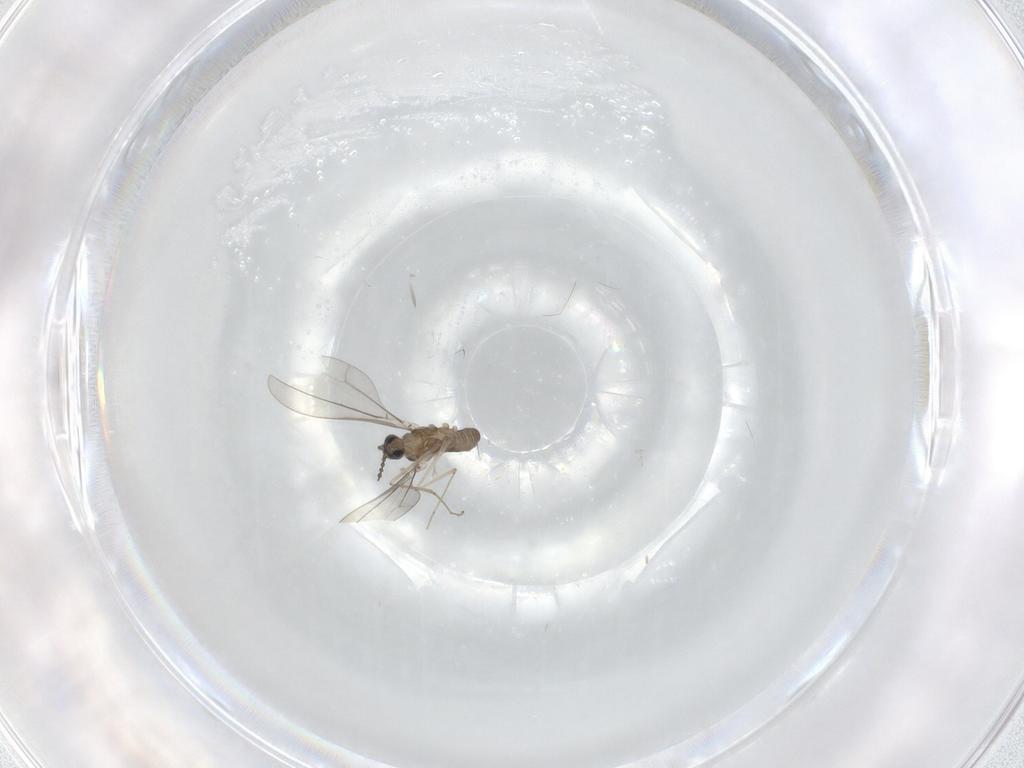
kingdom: Animalia
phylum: Arthropoda
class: Insecta
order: Diptera
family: Cecidomyiidae
